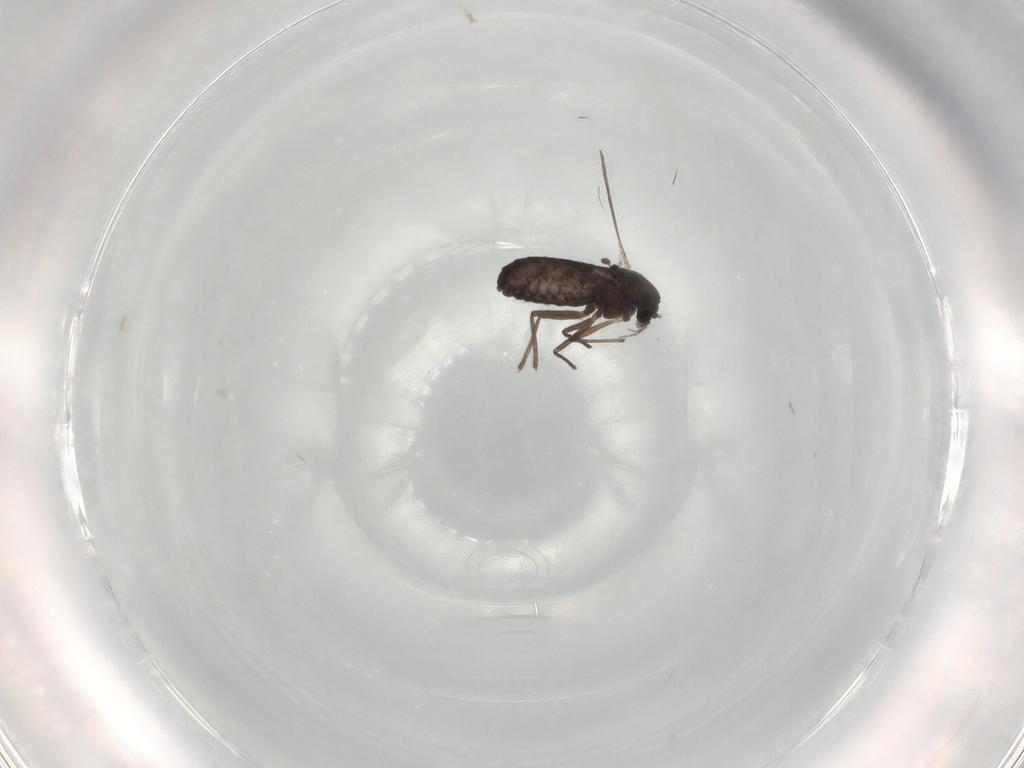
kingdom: Animalia
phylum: Arthropoda
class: Insecta
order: Diptera
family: Chironomidae
